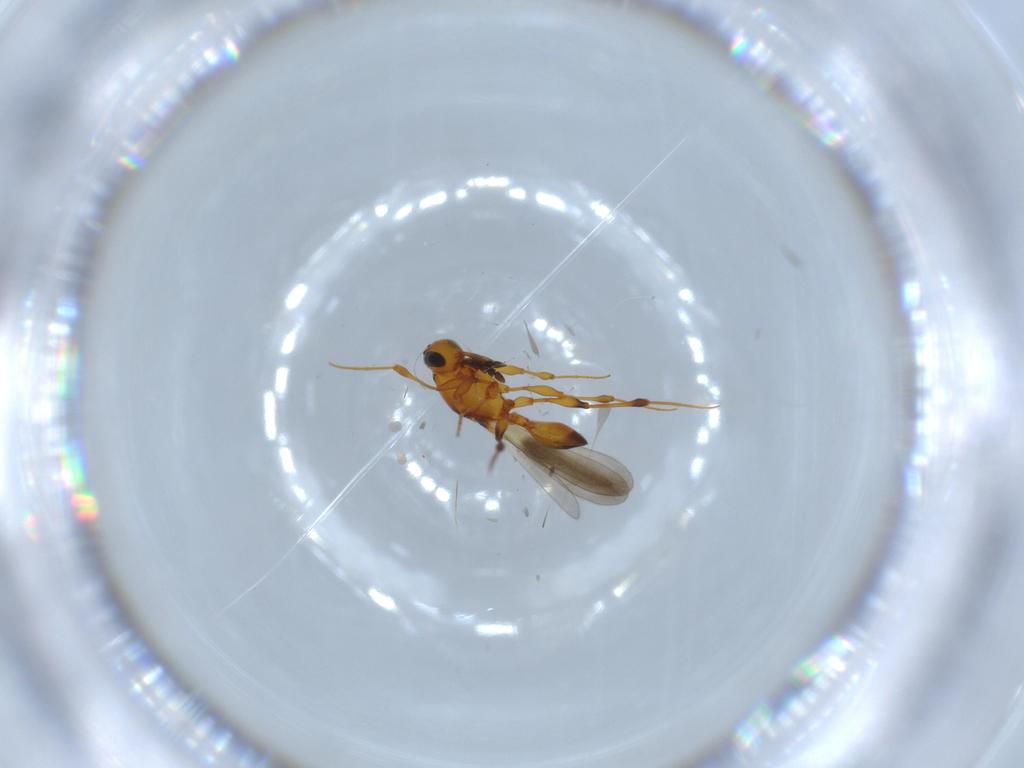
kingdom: Animalia
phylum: Arthropoda
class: Insecta
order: Hymenoptera
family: Platygastridae
